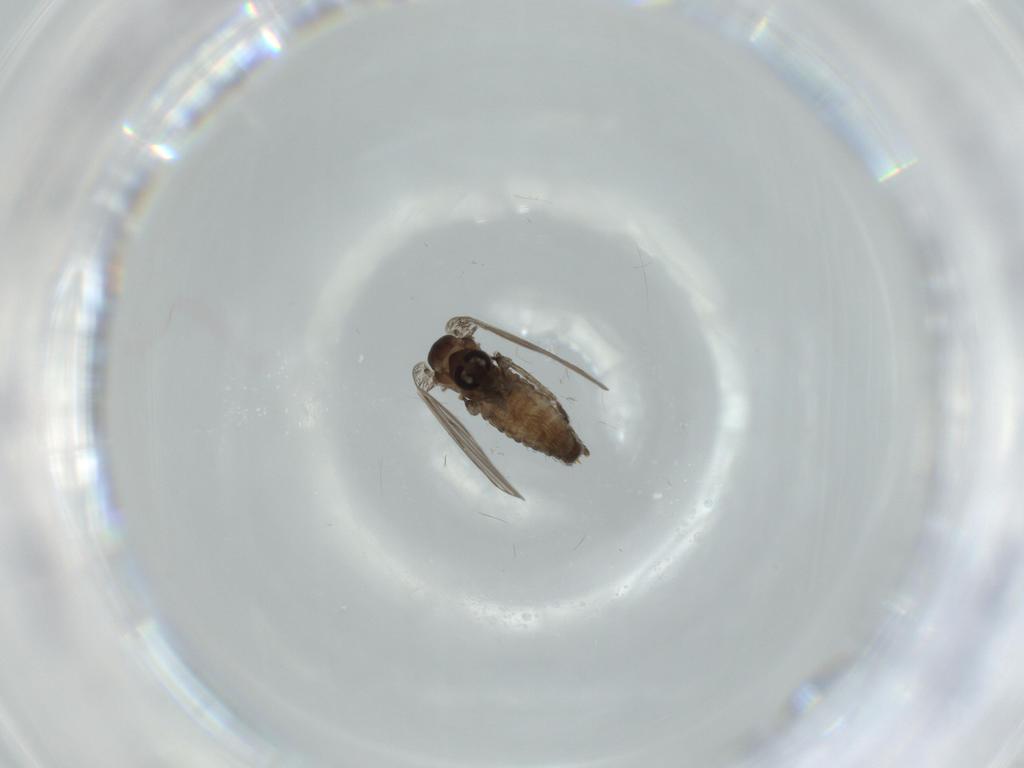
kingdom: Animalia
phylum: Arthropoda
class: Insecta
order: Diptera
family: Psychodidae
